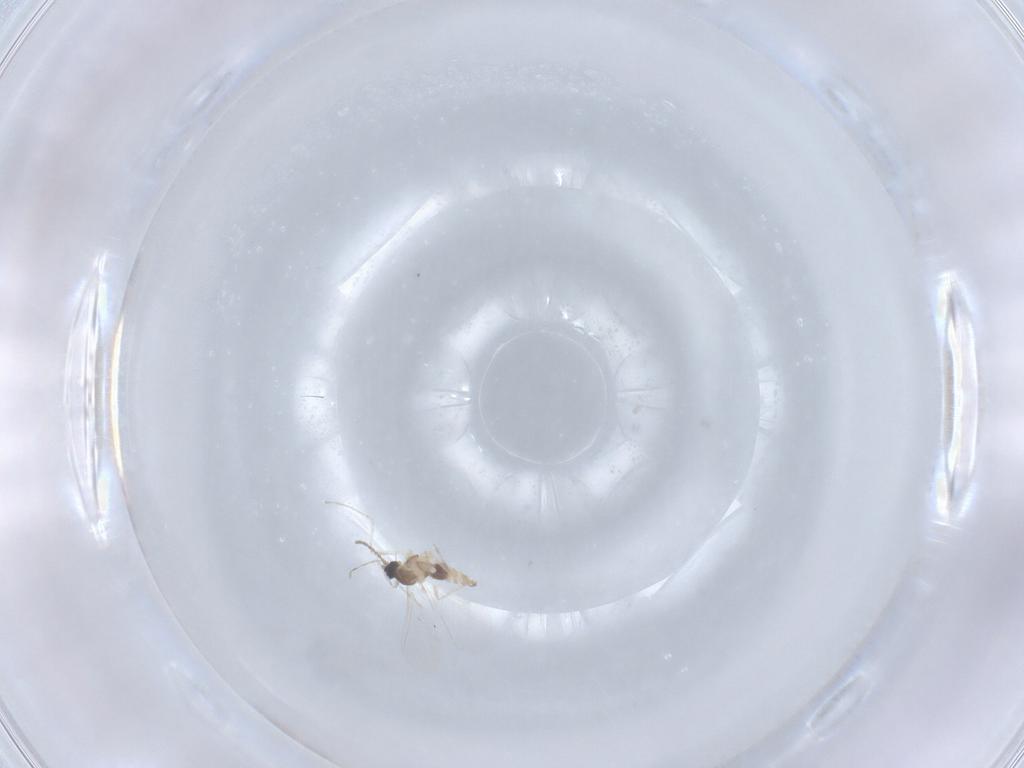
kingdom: Animalia
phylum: Arthropoda
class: Insecta
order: Diptera
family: Cecidomyiidae
